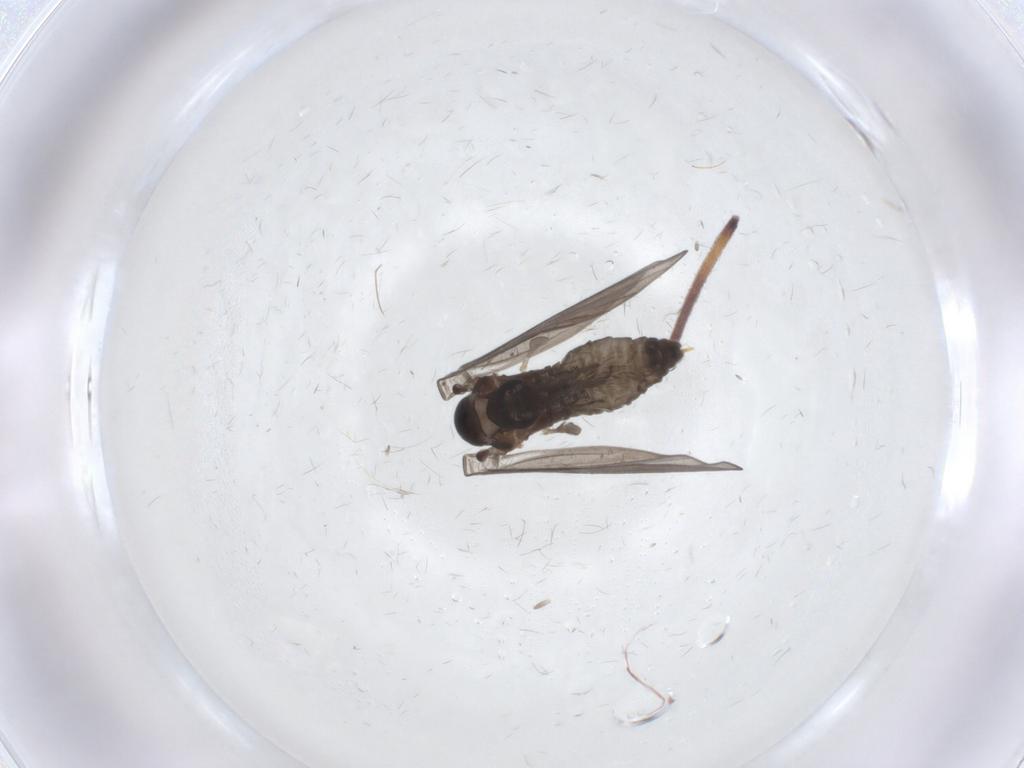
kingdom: Animalia
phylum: Arthropoda
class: Insecta
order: Diptera
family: Psychodidae
